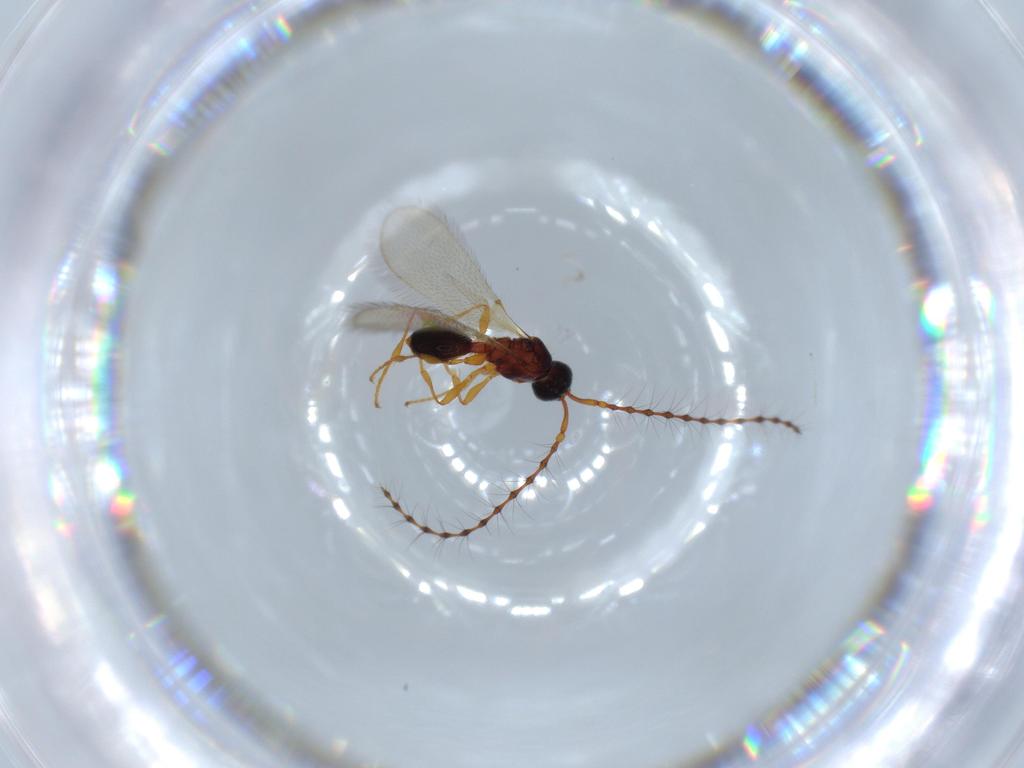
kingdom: Animalia
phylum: Arthropoda
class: Insecta
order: Hymenoptera
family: Diapriidae
